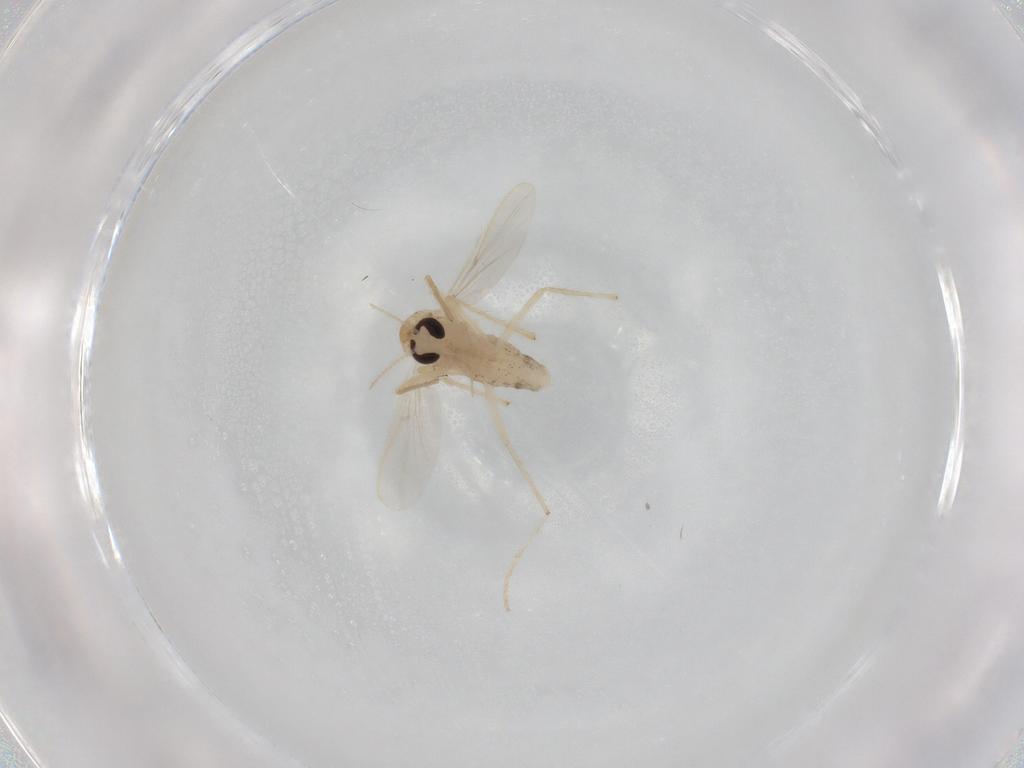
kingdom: Animalia
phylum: Arthropoda
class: Insecta
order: Diptera
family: Chironomidae
